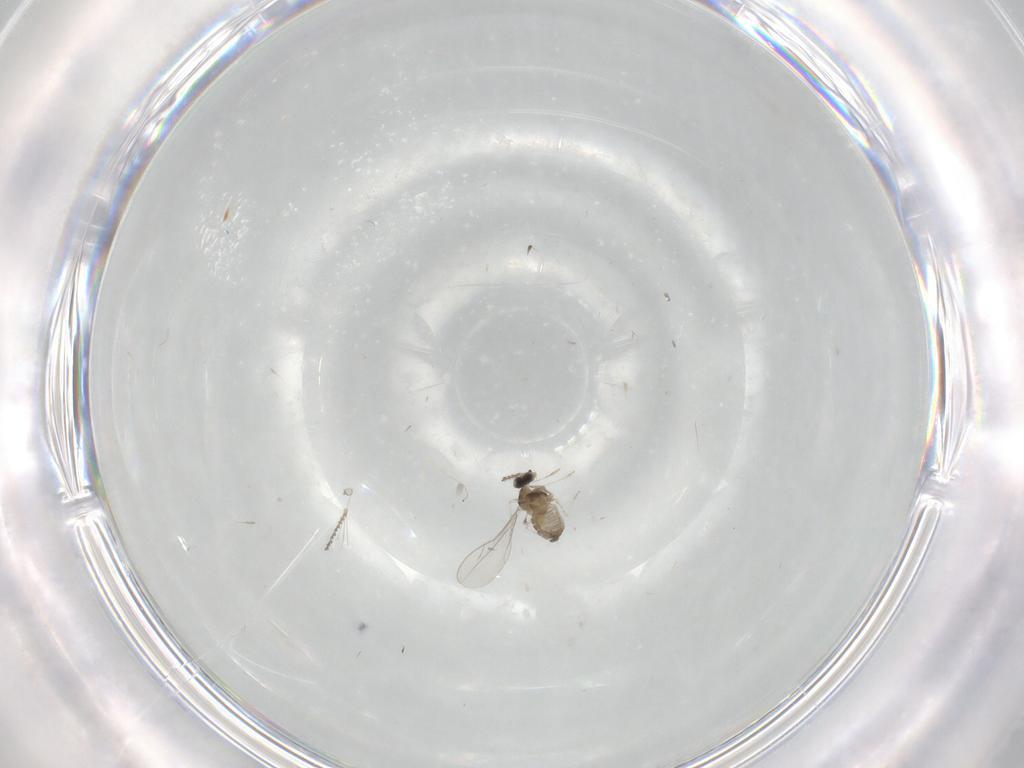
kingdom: Animalia
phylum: Arthropoda
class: Insecta
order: Diptera
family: Cecidomyiidae
